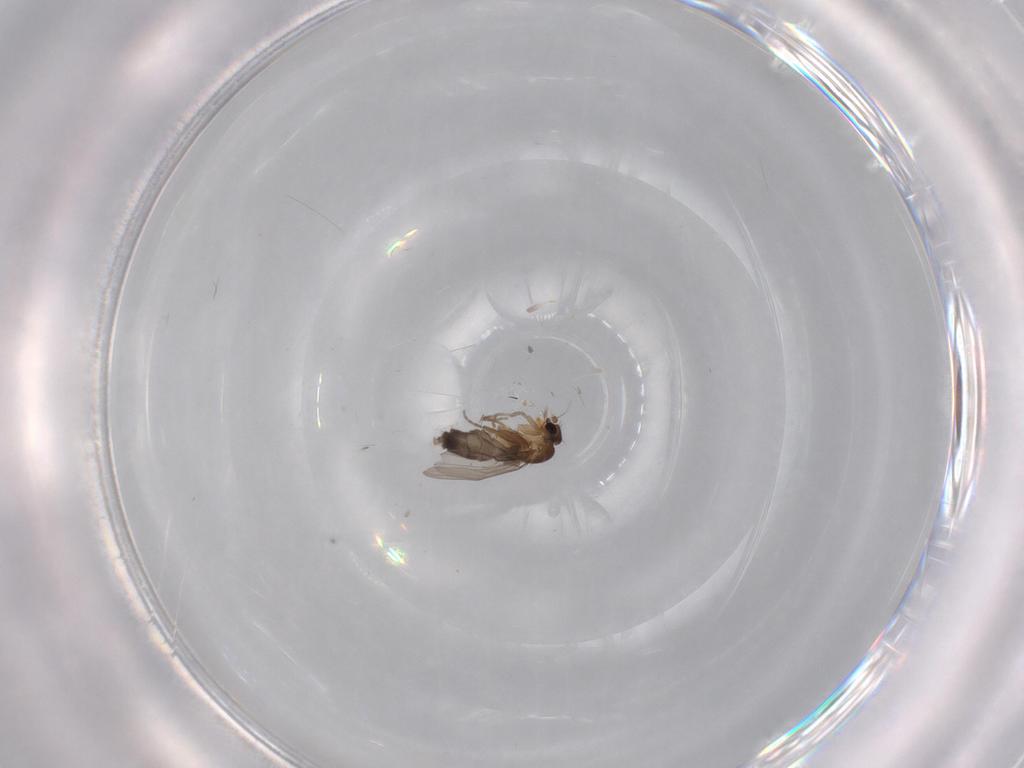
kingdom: Animalia
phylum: Arthropoda
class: Insecta
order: Diptera
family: Phoridae
